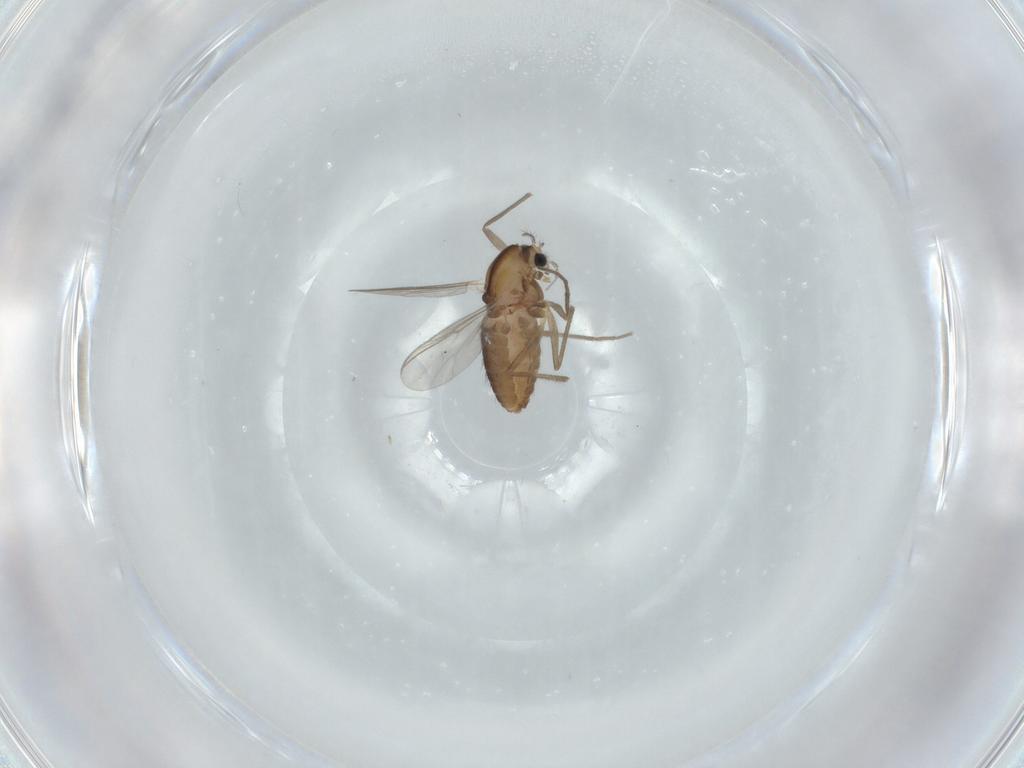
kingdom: Animalia
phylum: Arthropoda
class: Insecta
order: Diptera
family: Chironomidae
